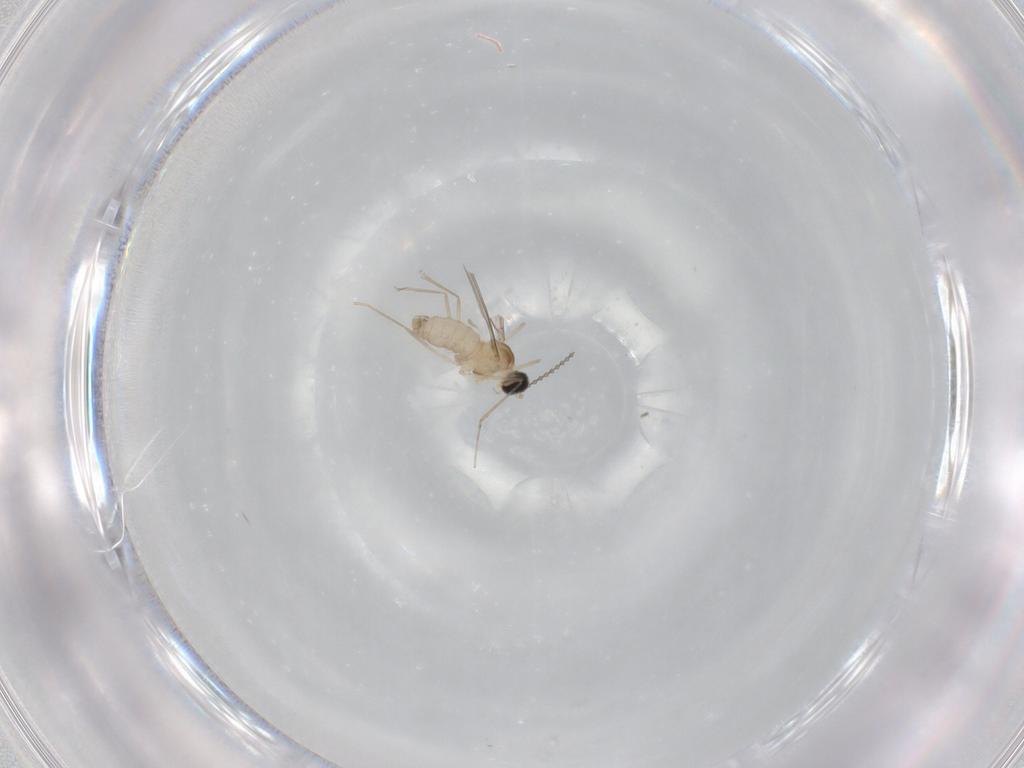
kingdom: Animalia
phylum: Arthropoda
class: Insecta
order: Diptera
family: Cecidomyiidae
